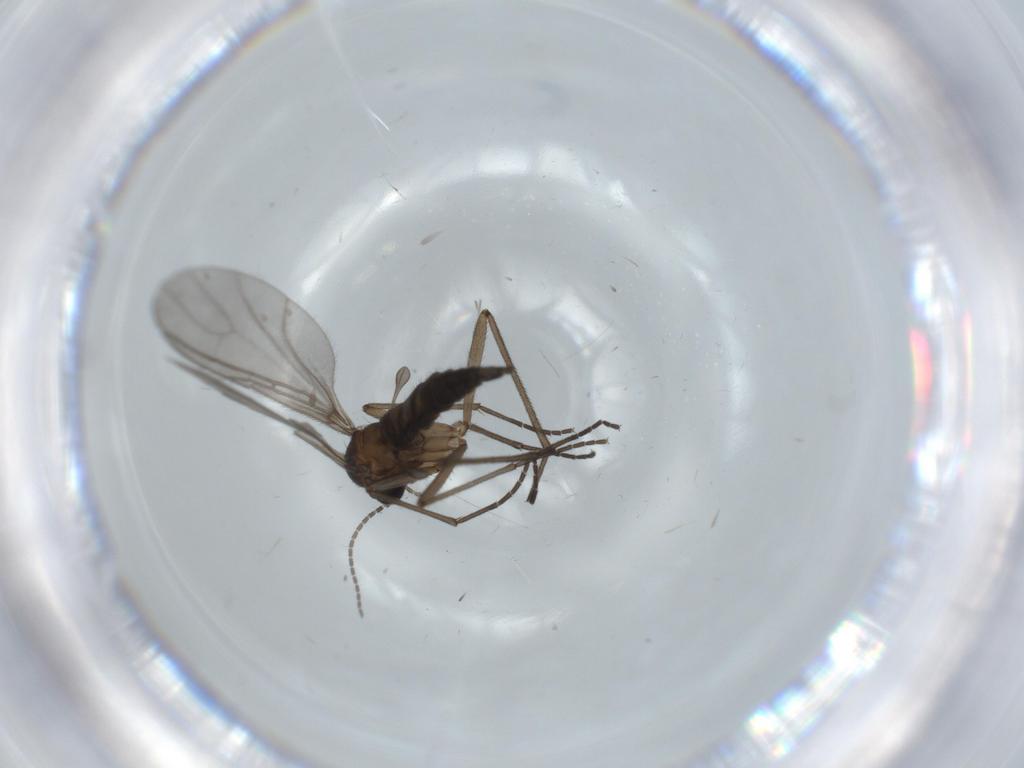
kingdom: Animalia
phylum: Arthropoda
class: Insecta
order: Diptera
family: Sciaridae
